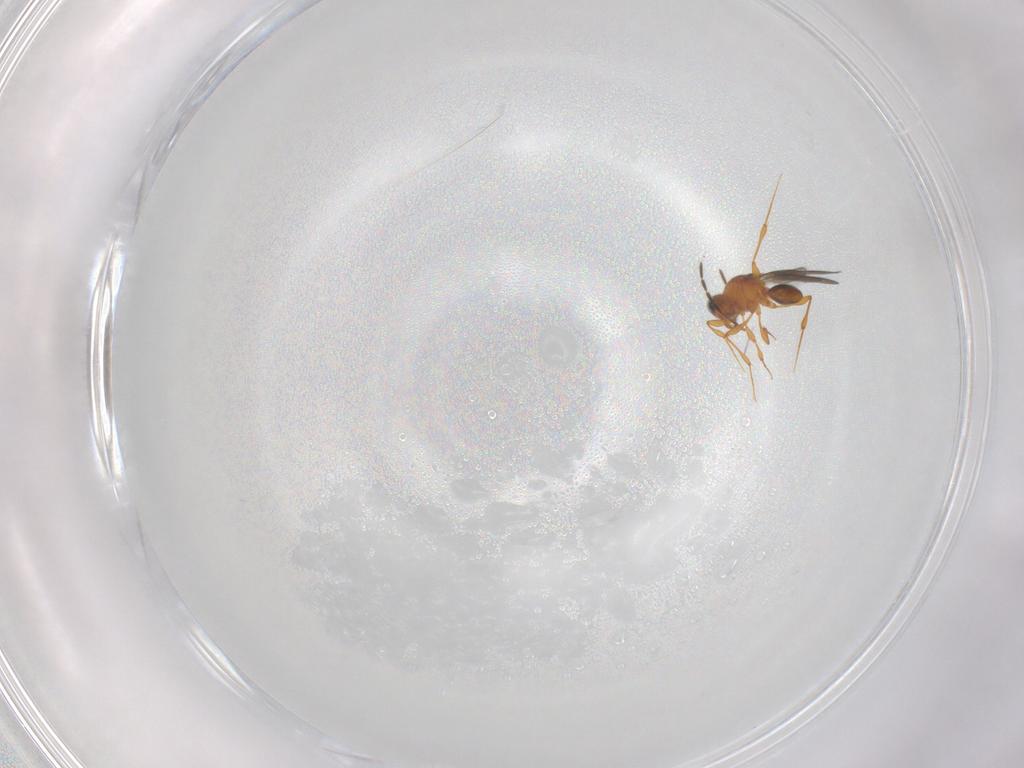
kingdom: Animalia
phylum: Arthropoda
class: Insecta
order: Hymenoptera
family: Platygastridae
